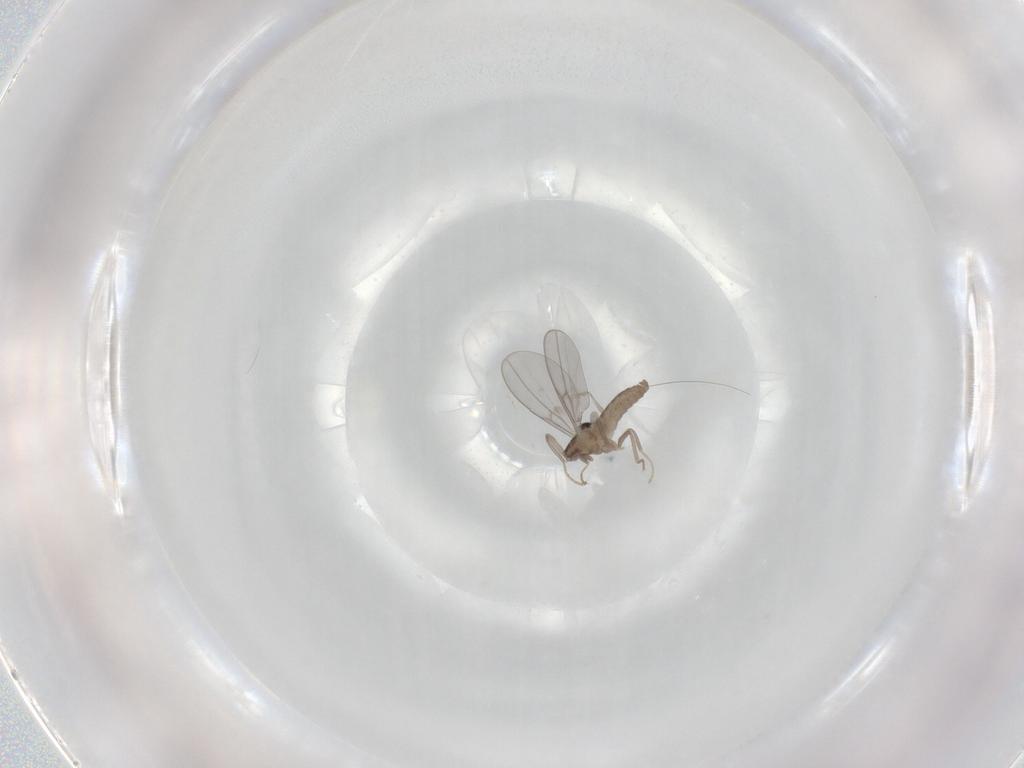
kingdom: Animalia
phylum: Arthropoda
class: Insecta
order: Diptera
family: Cecidomyiidae
